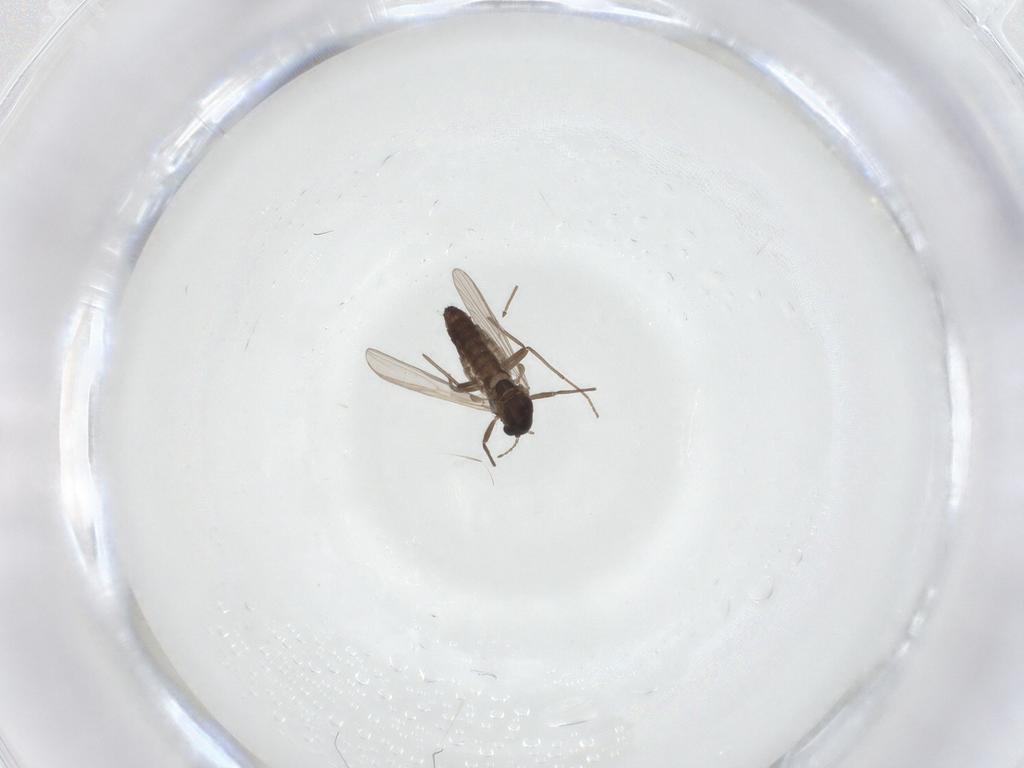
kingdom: Animalia
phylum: Arthropoda
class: Insecta
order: Diptera
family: Chironomidae
